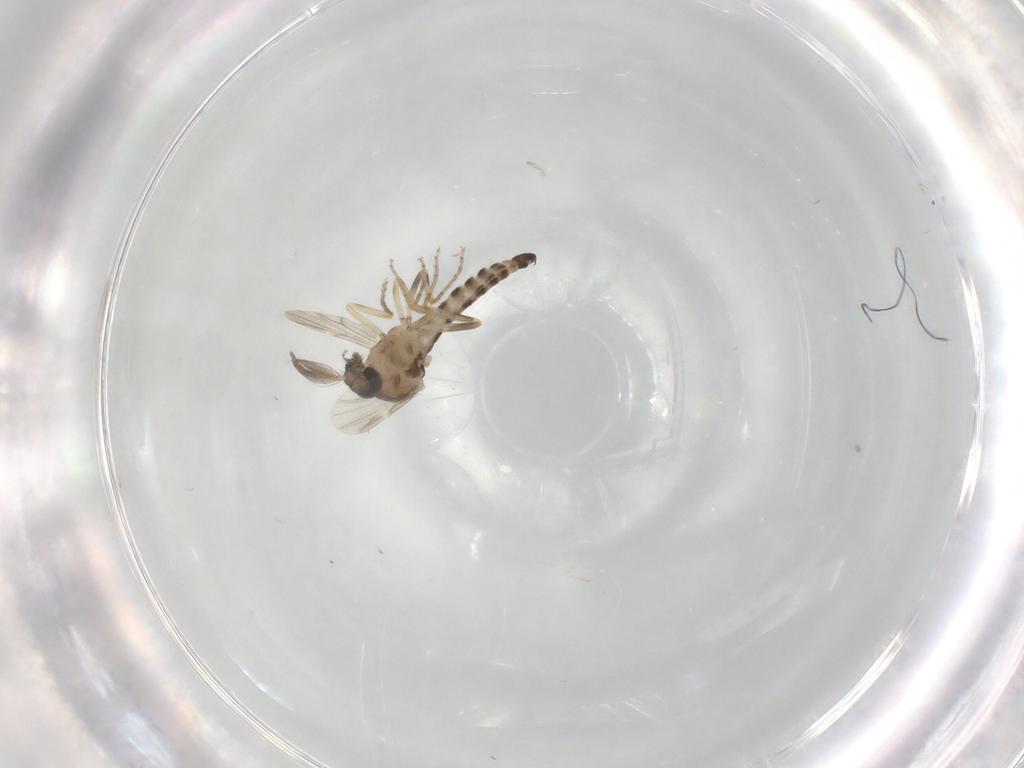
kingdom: Animalia
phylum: Arthropoda
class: Insecta
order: Diptera
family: Ceratopogonidae
